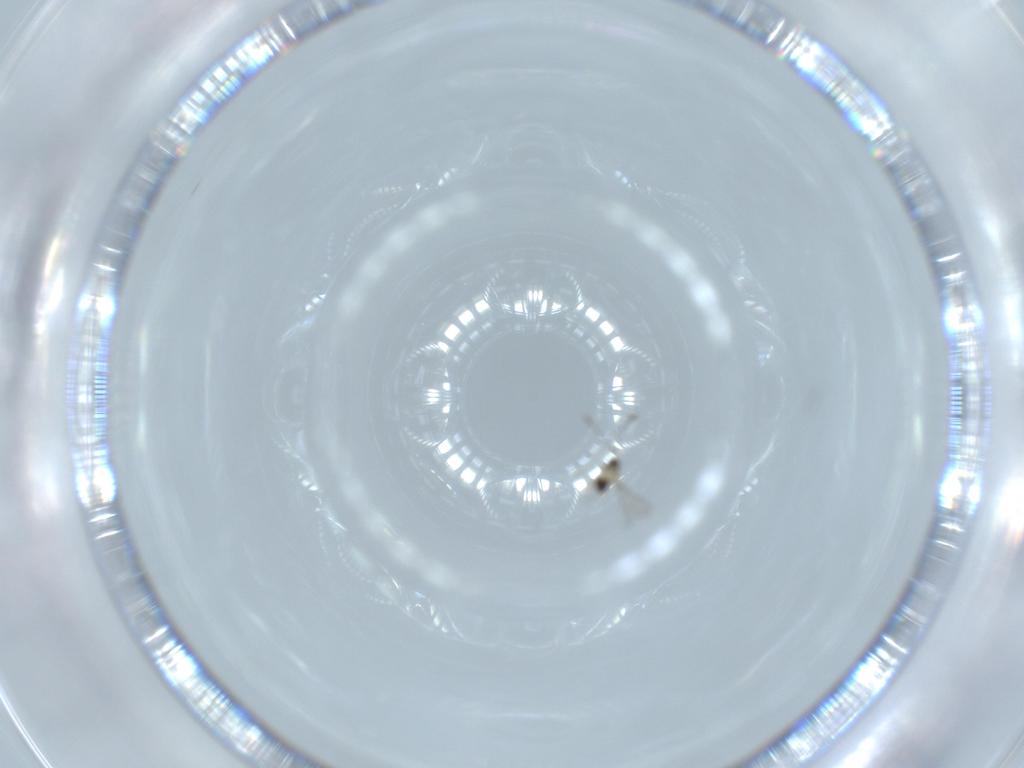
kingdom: Animalia
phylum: Arthropoda
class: Insecta
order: Hymenoptera
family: Mymaridae
